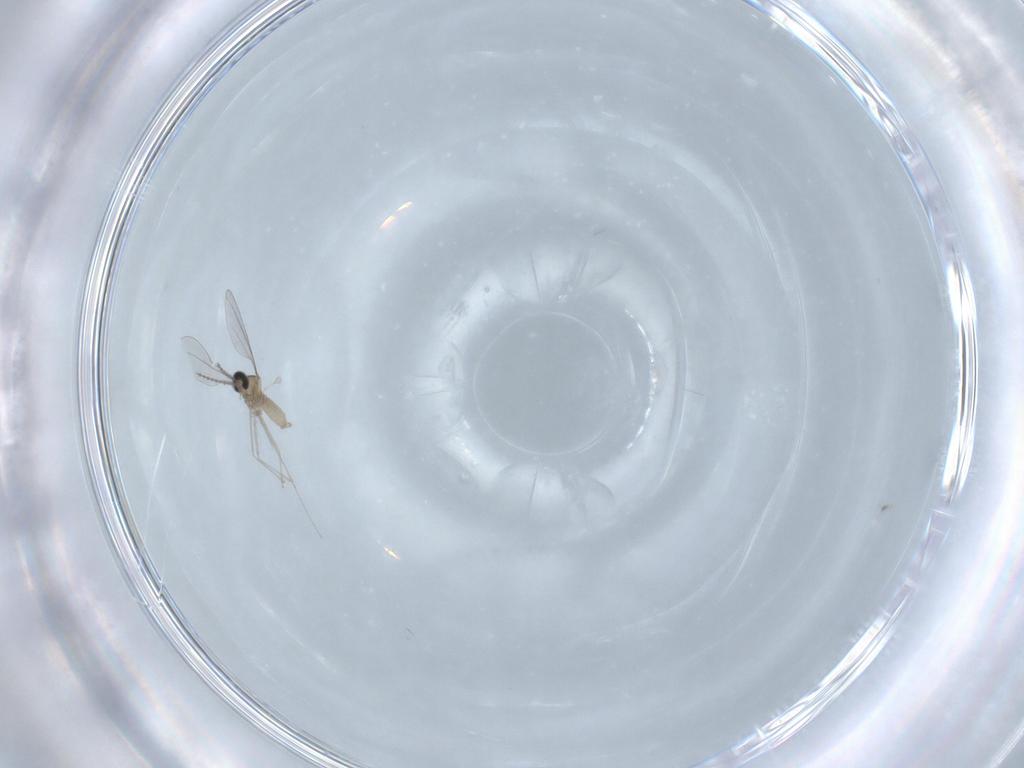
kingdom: Animalia
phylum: Arthropoda
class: Insecta
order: Diptera
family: Cecidomyiidae
